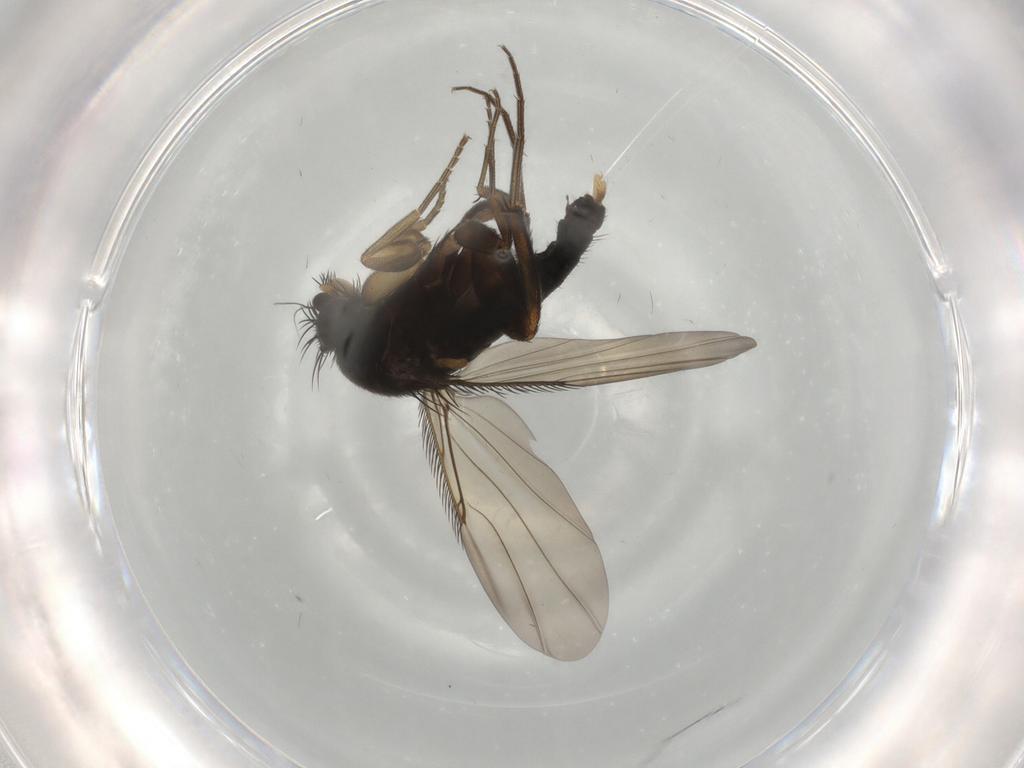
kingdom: Animalia
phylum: Arthropoda
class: Insecta
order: Diptera
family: Phoridae
